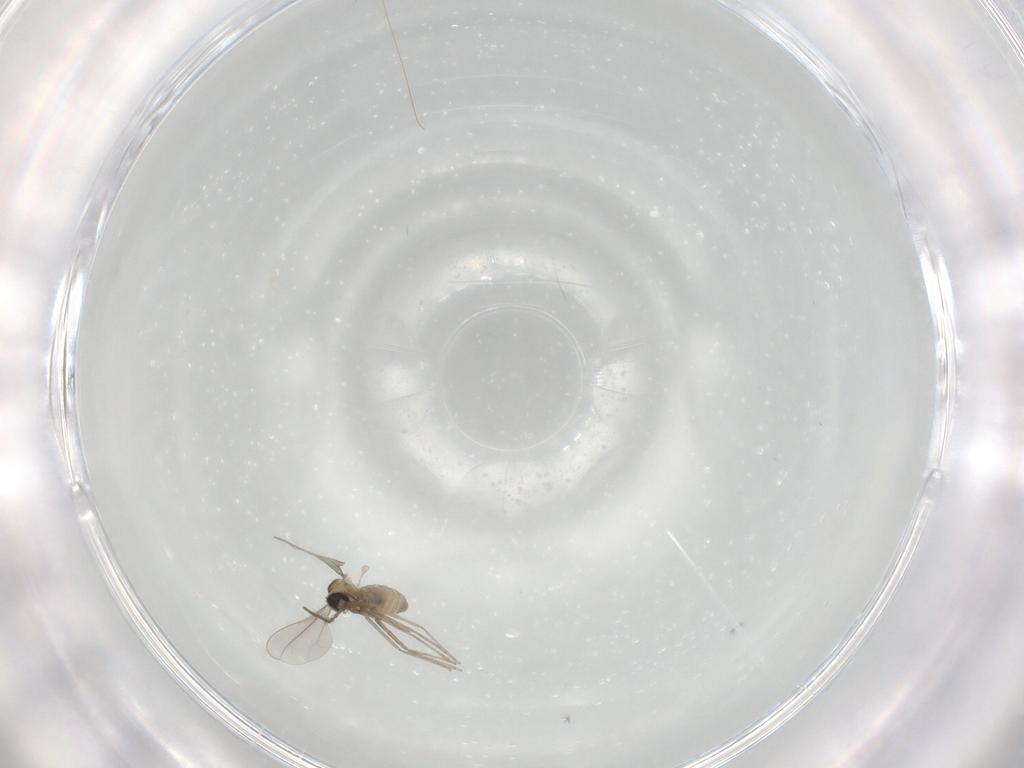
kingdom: Animalia
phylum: Arthropoda
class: Insecta
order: Diptera
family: Cecidomyiidae
